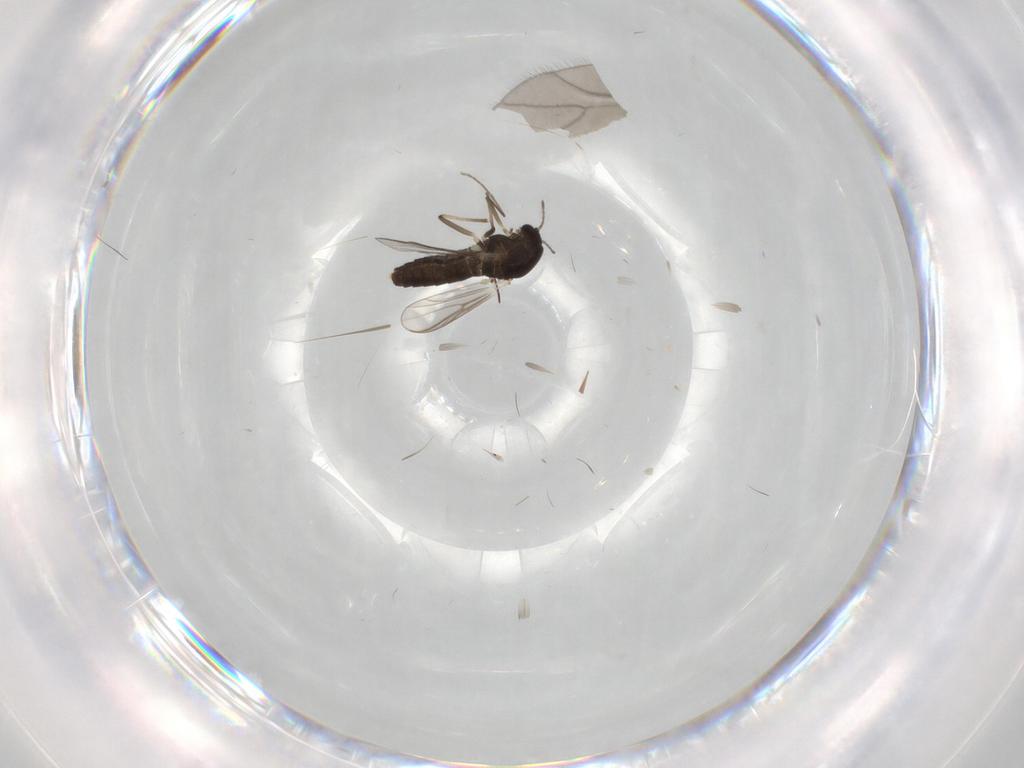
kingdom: Animalia
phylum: Arthropoda
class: Insecta
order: Diptera
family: Chironomidae
